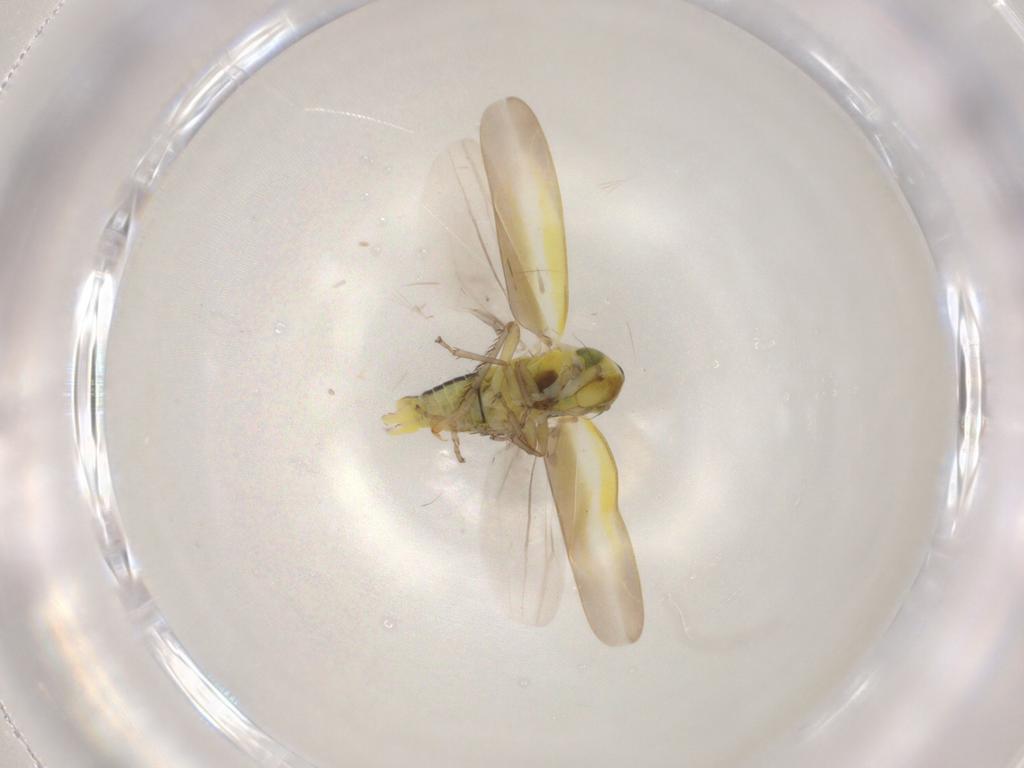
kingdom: Animalia
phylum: Arthropoda
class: Insecta
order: Hemiptera
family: Cicadellidae
